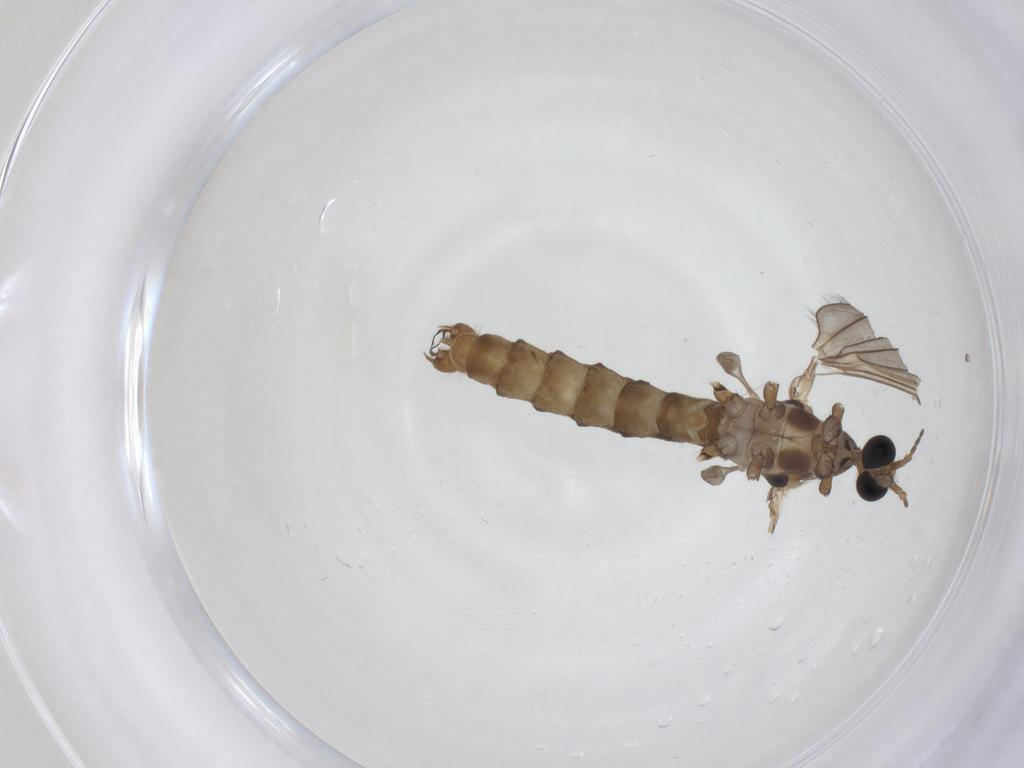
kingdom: Animalia
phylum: Arthropoda
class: Insecta
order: Diptera
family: Limoniidae
